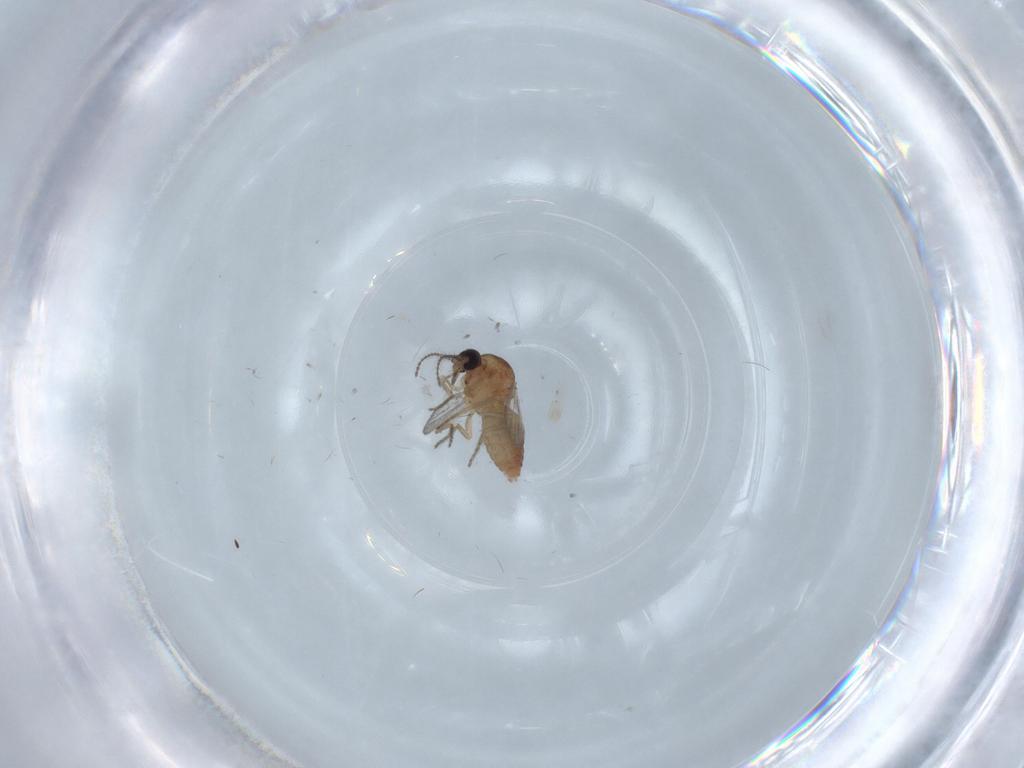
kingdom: Animalia
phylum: Arthropoda
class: Insecta
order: Diptera
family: Ceratopogonidae
